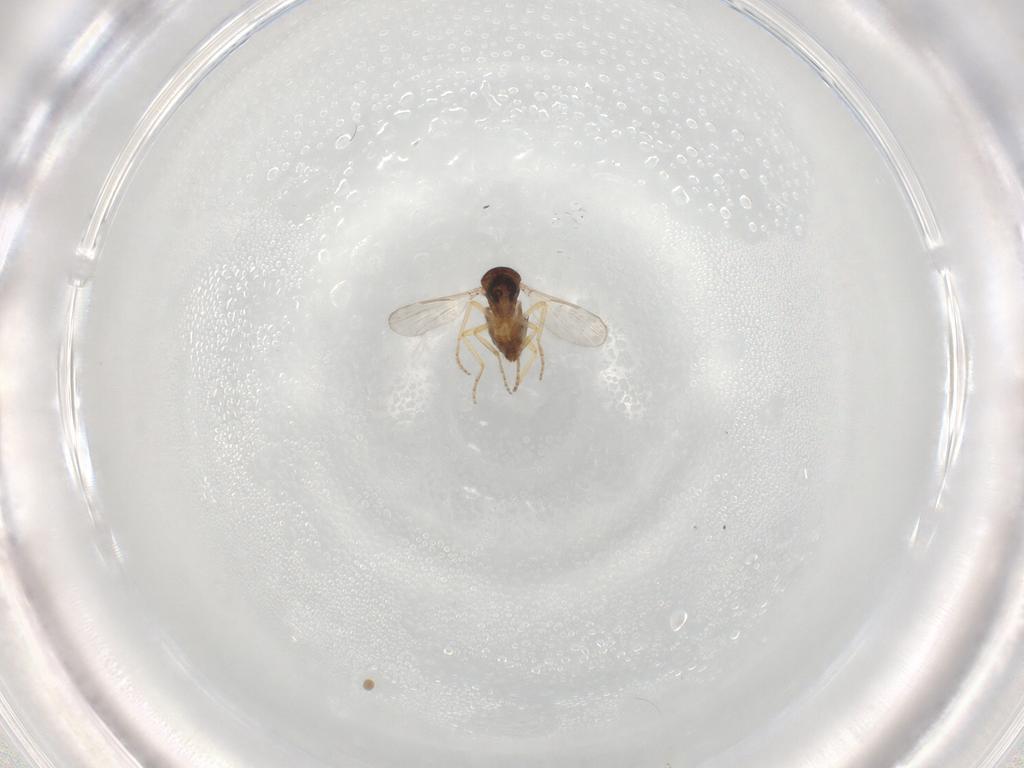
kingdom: Animalia
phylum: Arthropoda
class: Insecta
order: Diptera
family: Ceratopogonidae
